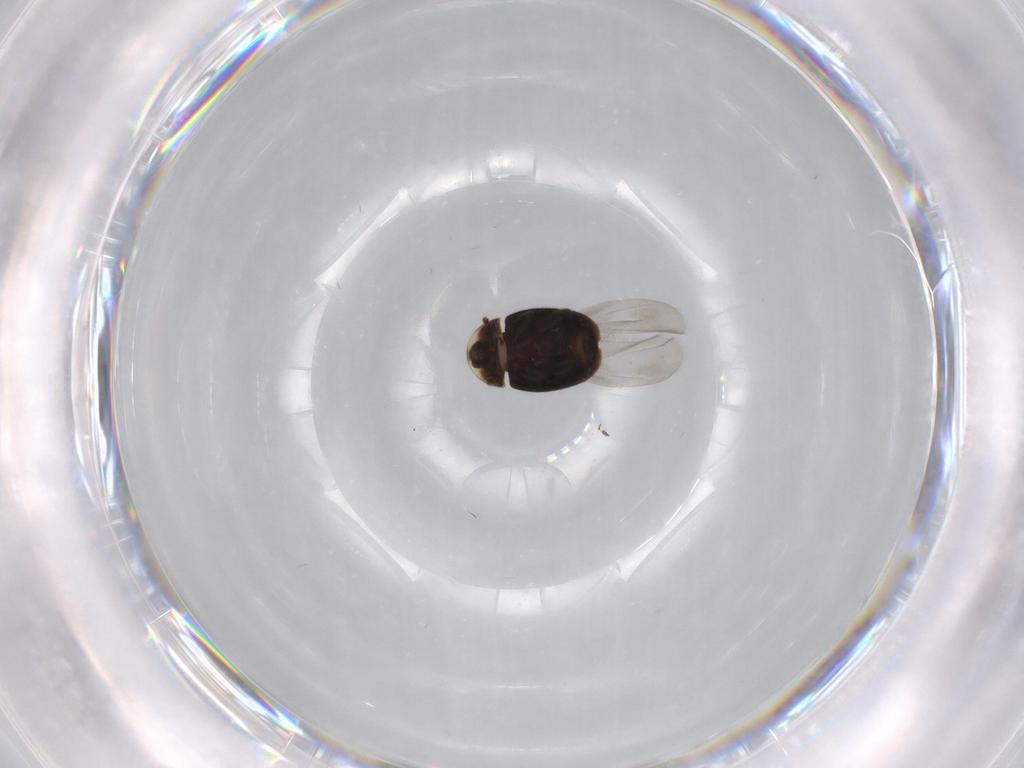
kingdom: Animalia
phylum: Arthropoda
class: Insecta
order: Coleoptera
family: Corylophidae
